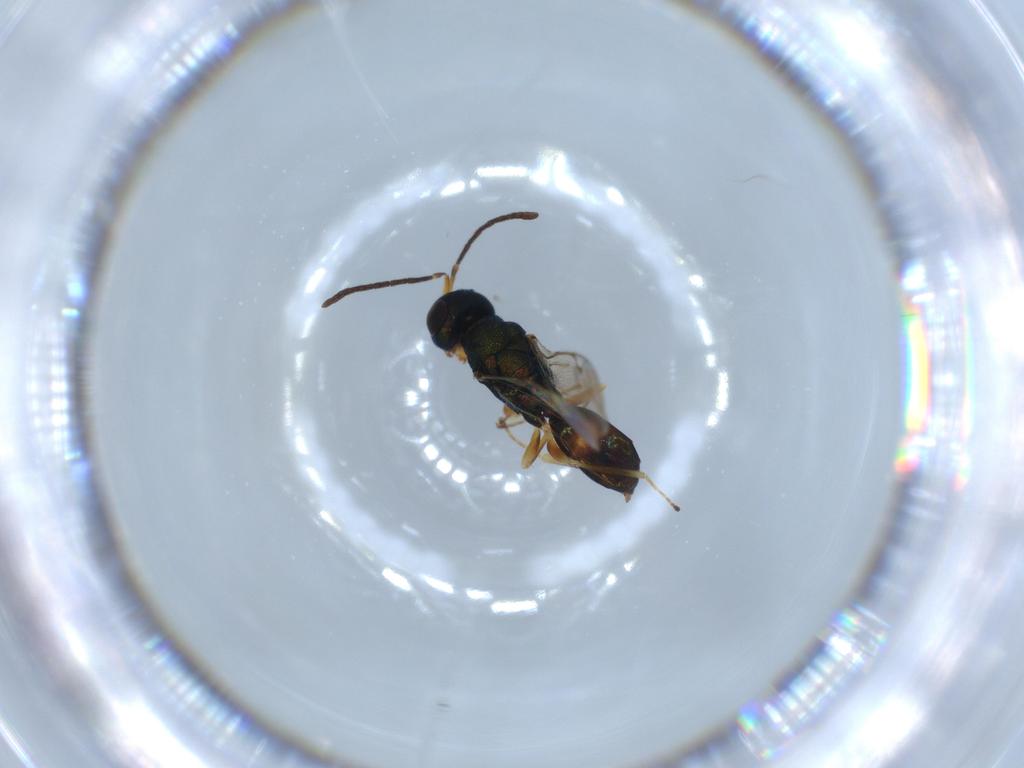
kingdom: Animalia
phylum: Arthropoda
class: Insecta
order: Hymenoptera
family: Pteromalidae
